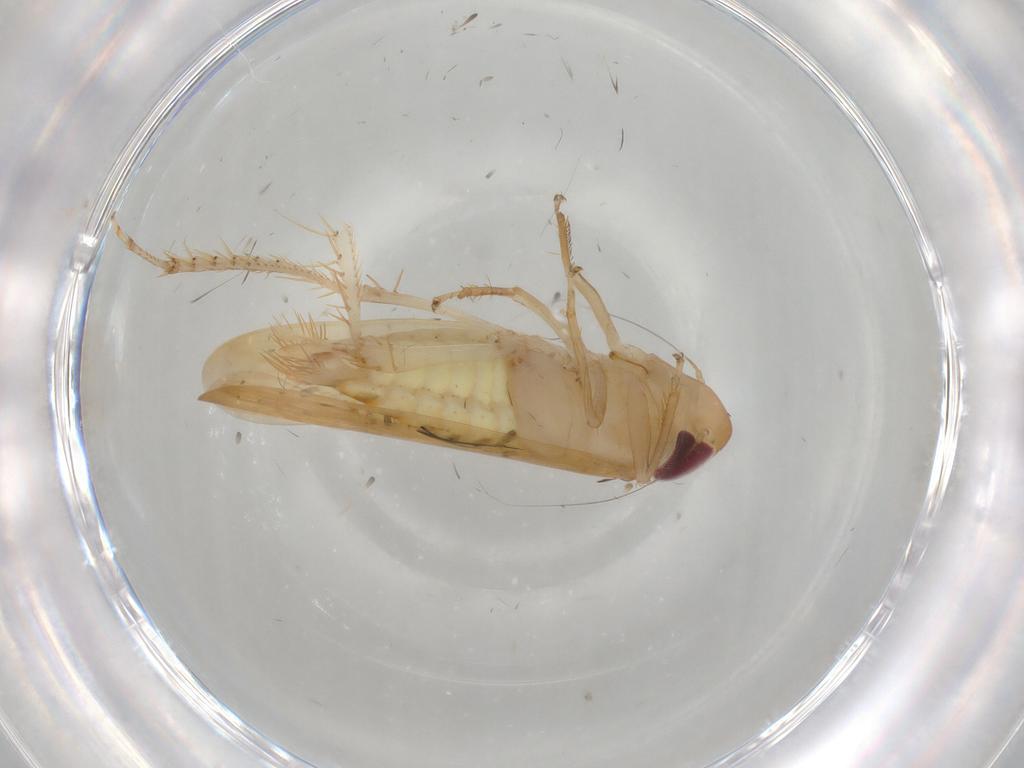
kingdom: Animalia
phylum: Arthropoda
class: Insecta
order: Hemiptera
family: Cicadellidae
